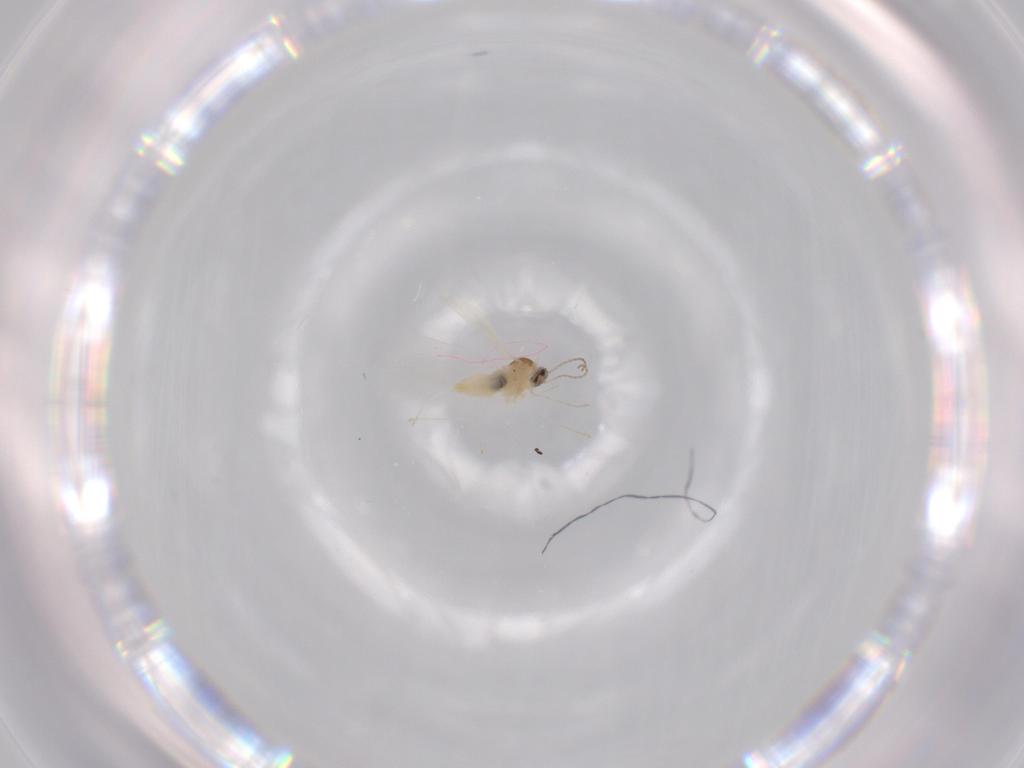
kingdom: Animalia
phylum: Arthropoda
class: Insecta
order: Diptera
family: Cecidomyiidae
